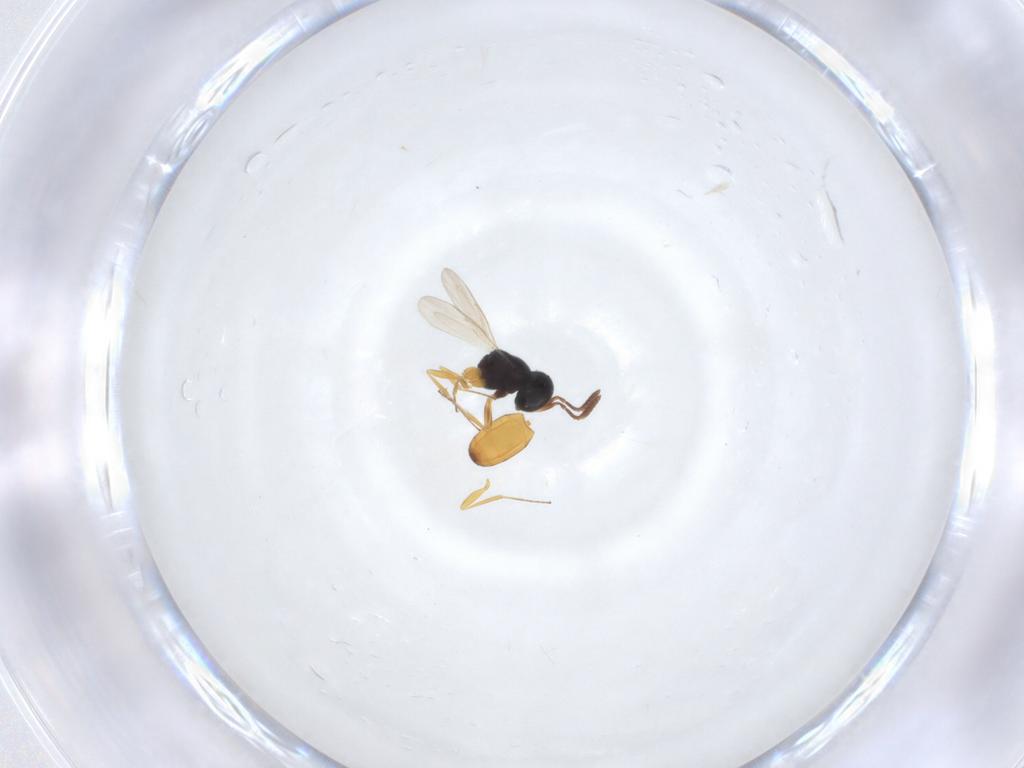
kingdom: Animalia
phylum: Arthropoda
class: Insecta
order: Hymenoptera
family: Scelionidae
